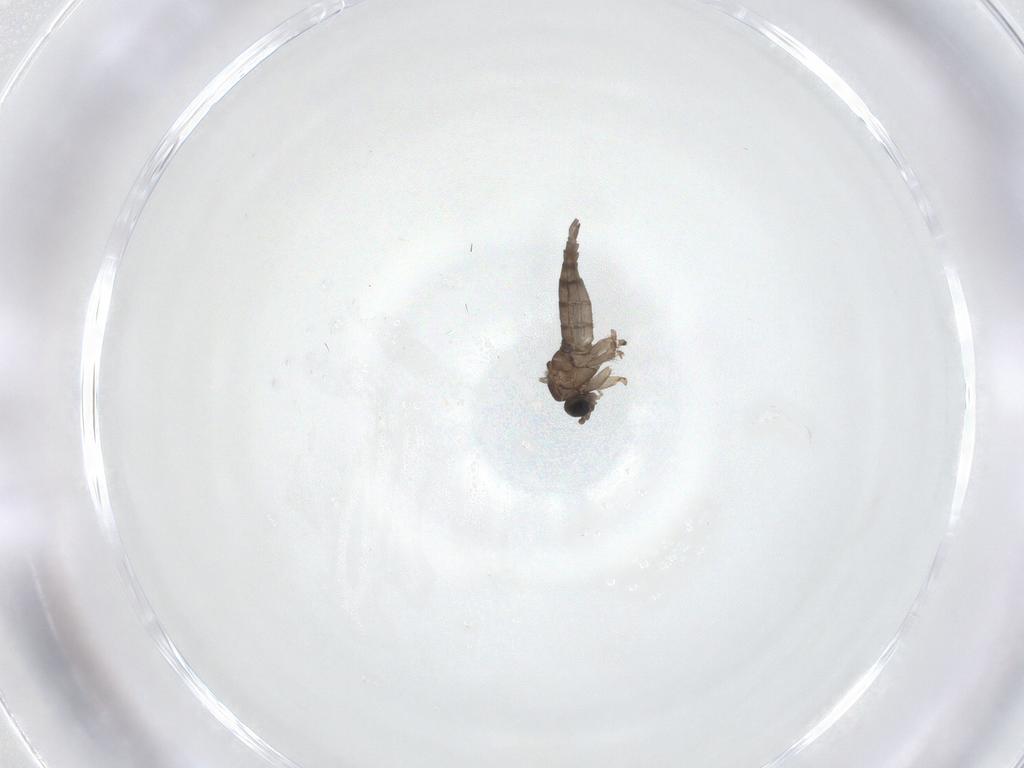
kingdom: Animalia
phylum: Arthropoda
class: Insecta
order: Diptera
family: Sciaridae
